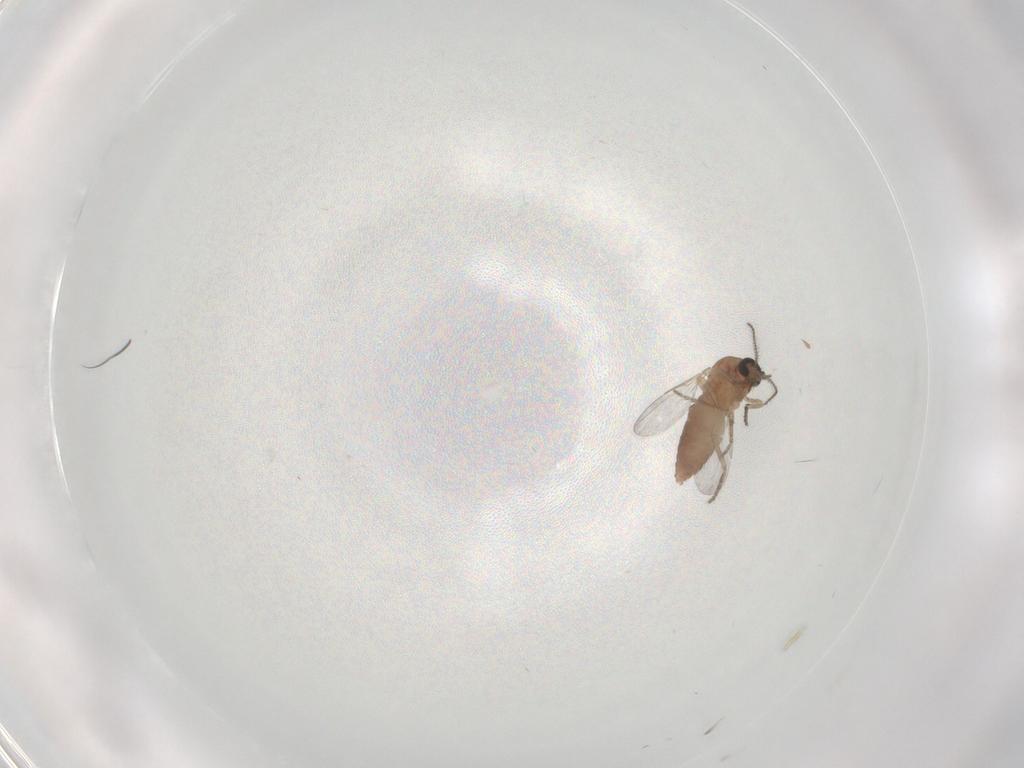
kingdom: Animalia
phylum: Arthropoda
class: Insecta
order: Diptera
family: Ceratopogonidae
